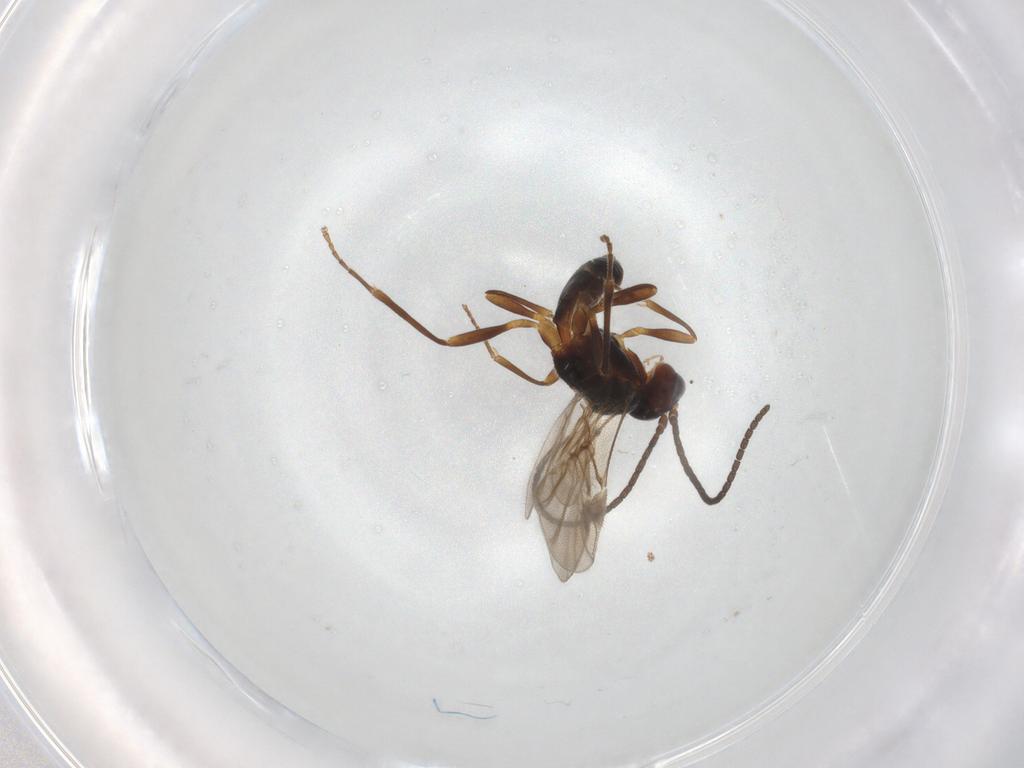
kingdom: Animalia
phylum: Arthropoda
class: Insecta
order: Hymenoptera
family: Braconidae
